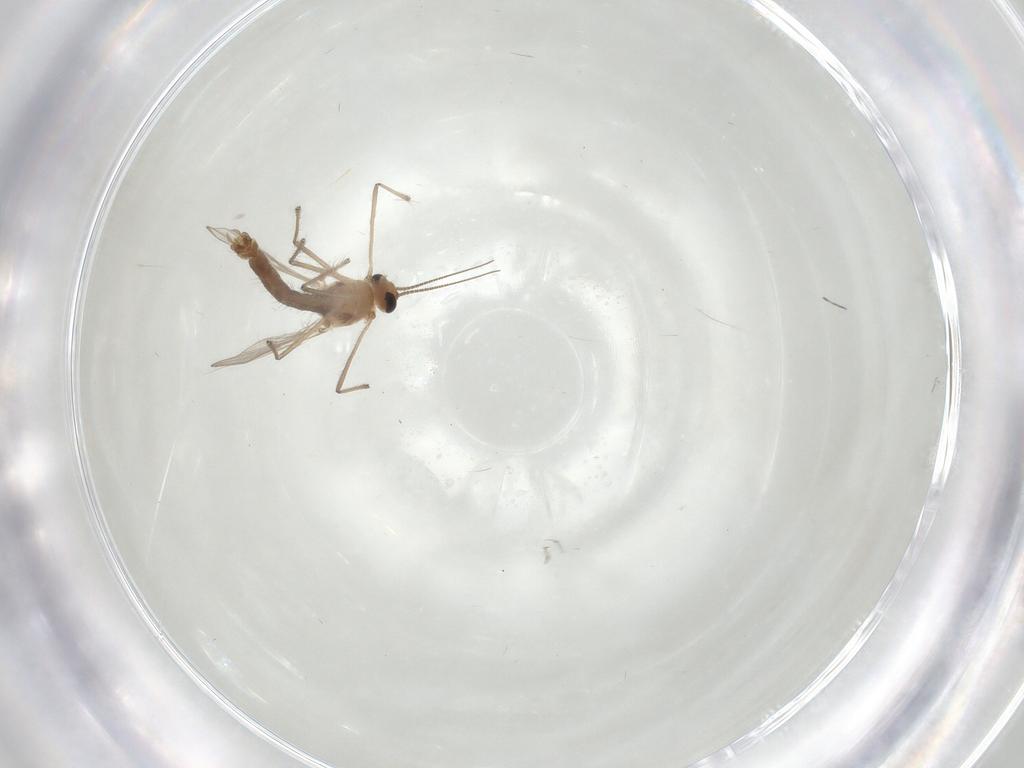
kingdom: Animalia
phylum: Arthropoda
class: Insecta
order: Diptera
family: Chironomidae
